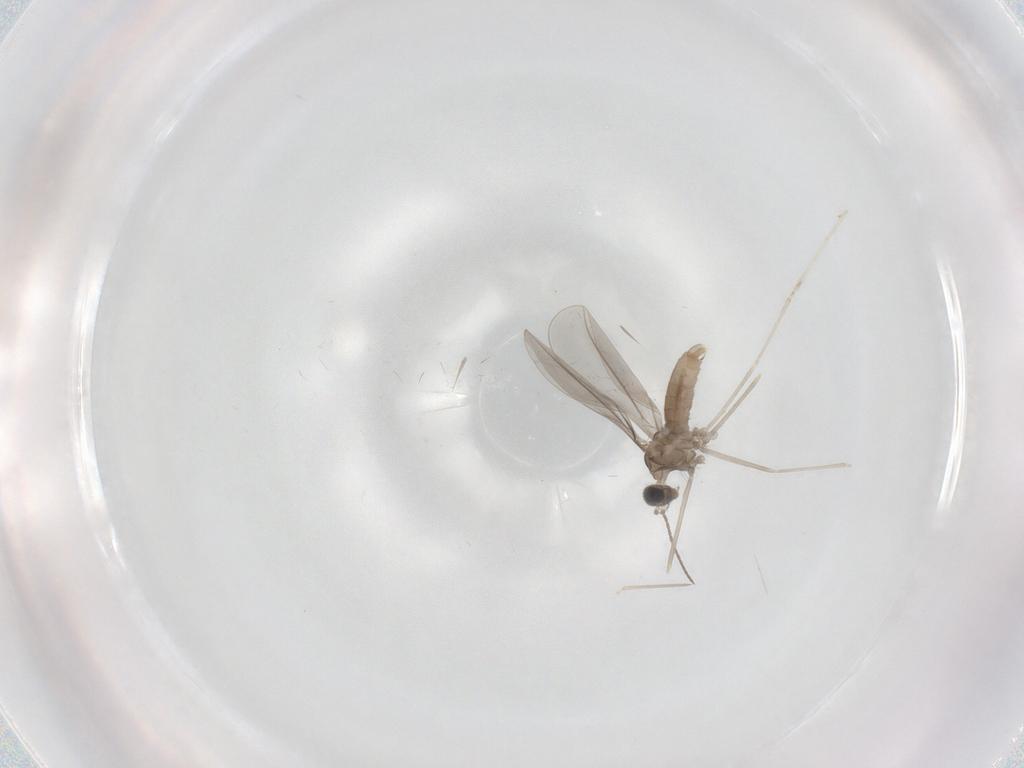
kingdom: Animalia
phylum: Arthropoda
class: Insecta
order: Diptera
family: Cecidomyiidae
